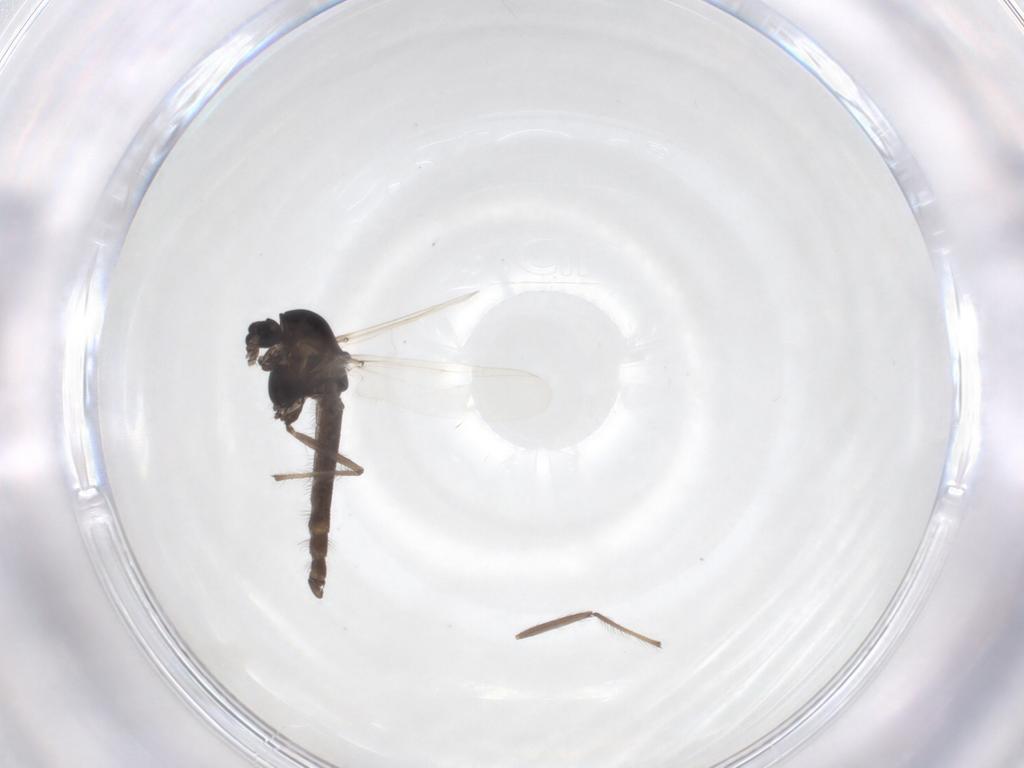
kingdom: Animalia
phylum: Arthropoda
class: Insecta
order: Diptera
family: Chironomidae
